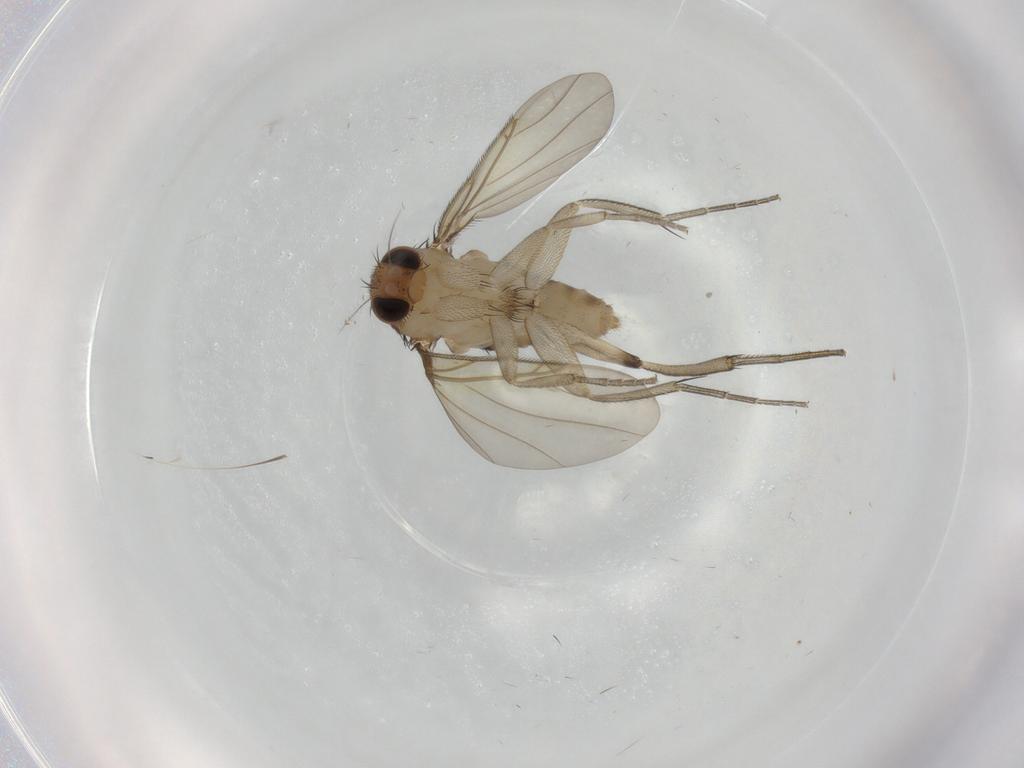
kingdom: Animalia
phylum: Arthropoda
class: Insecta
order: Diptera
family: Phoridae
